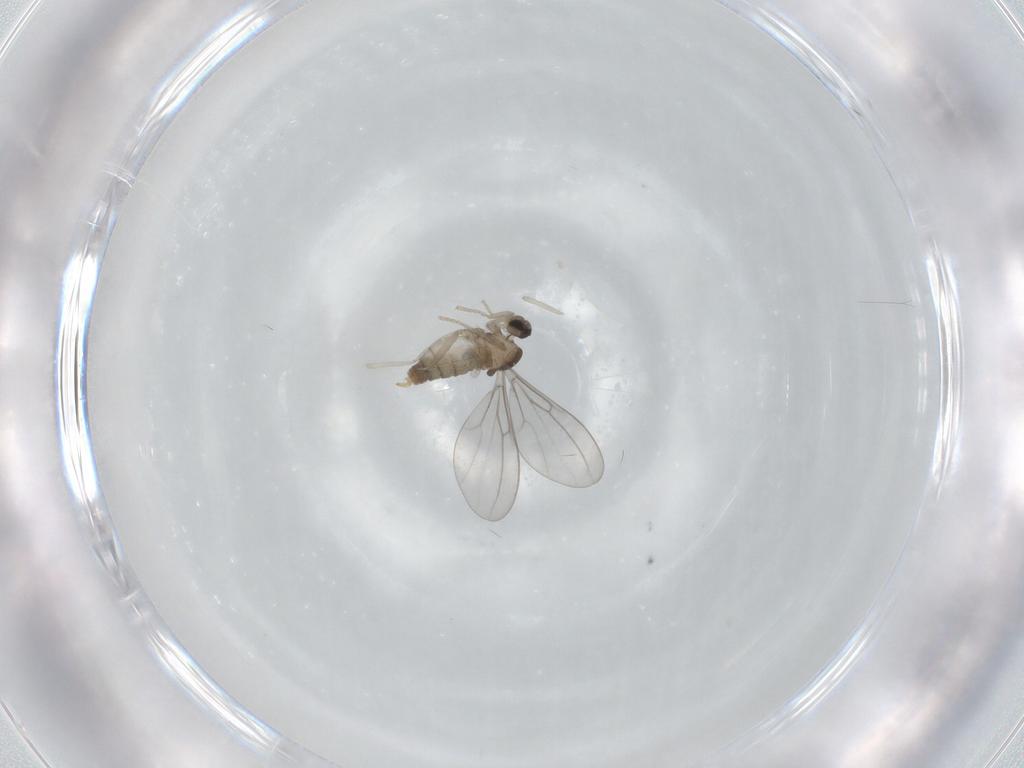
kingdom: Animalia
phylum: Arthropoda
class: Insecta
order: Diptera
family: Cecidomyiidae
